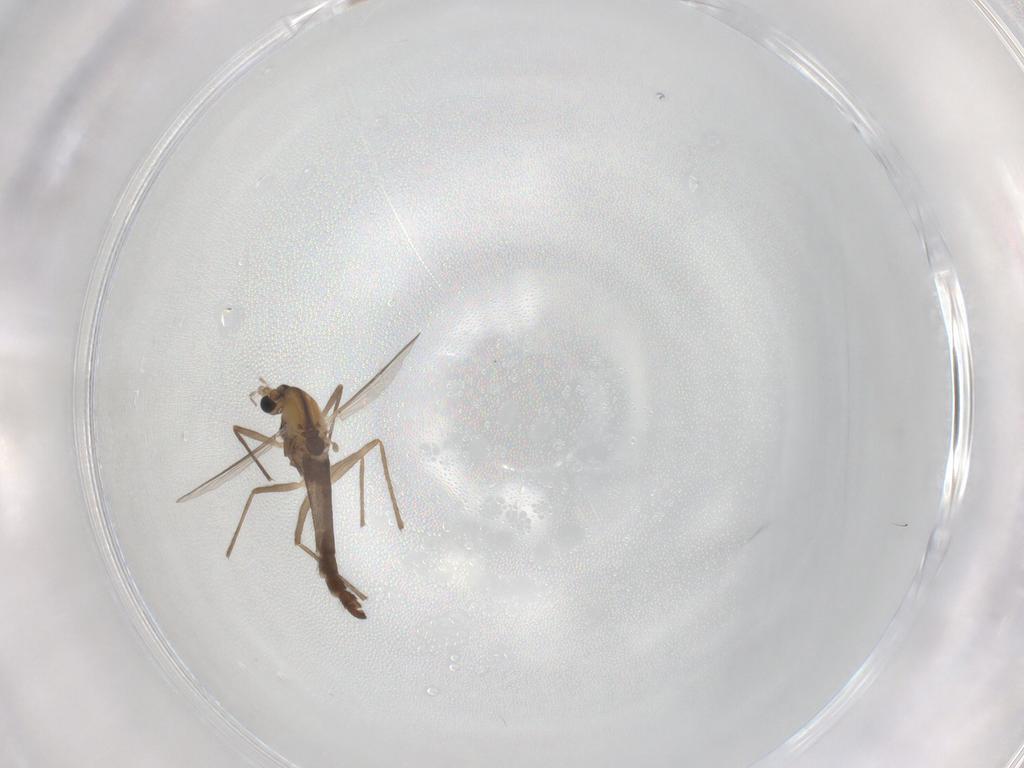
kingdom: Animalia
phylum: Arthropoda
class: Insecta
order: Diptera
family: Chironomidae
